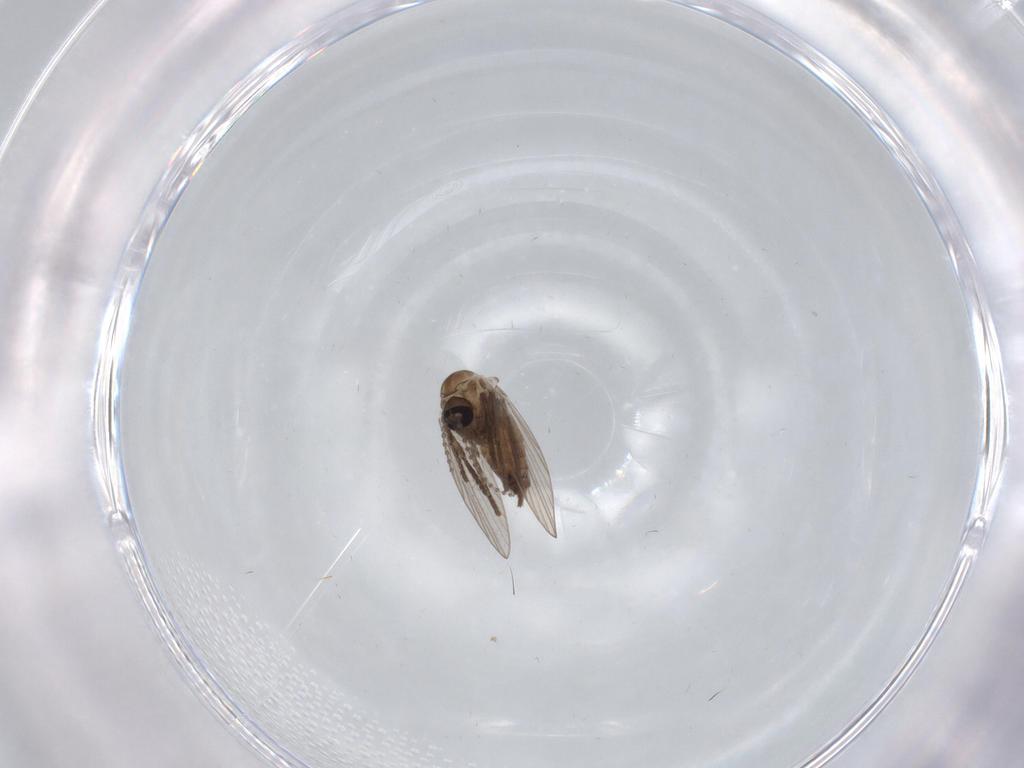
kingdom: Animalia
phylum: Arthropoda
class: Insecta
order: Diptera
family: Psychodidae
